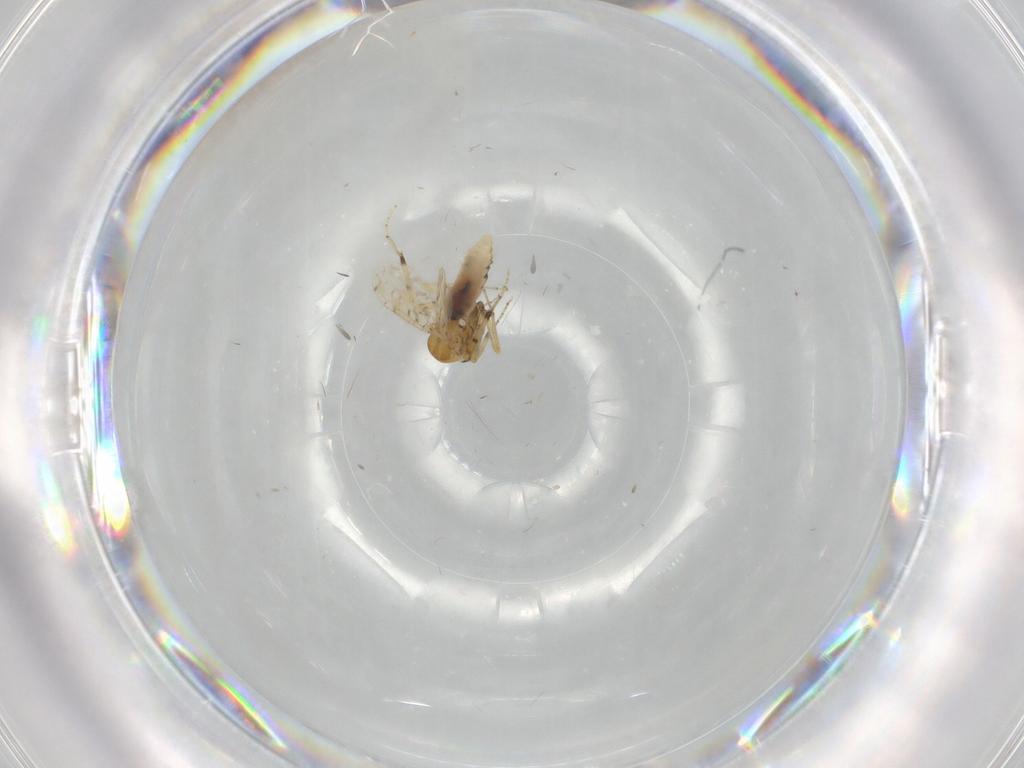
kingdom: Animalia
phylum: Arthropoda
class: Insecta
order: Diptera
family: Ceratopogonidae
